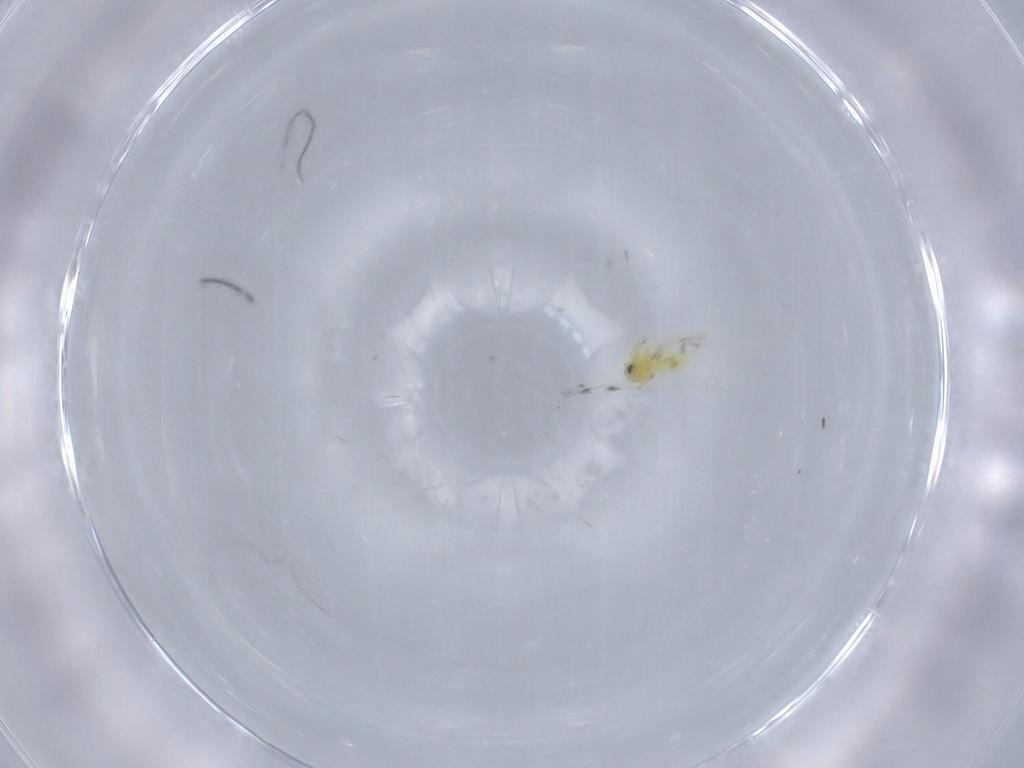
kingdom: Animalia
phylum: Arthropoda
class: Insecta
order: Hemiptera
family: Aleyrodidae
